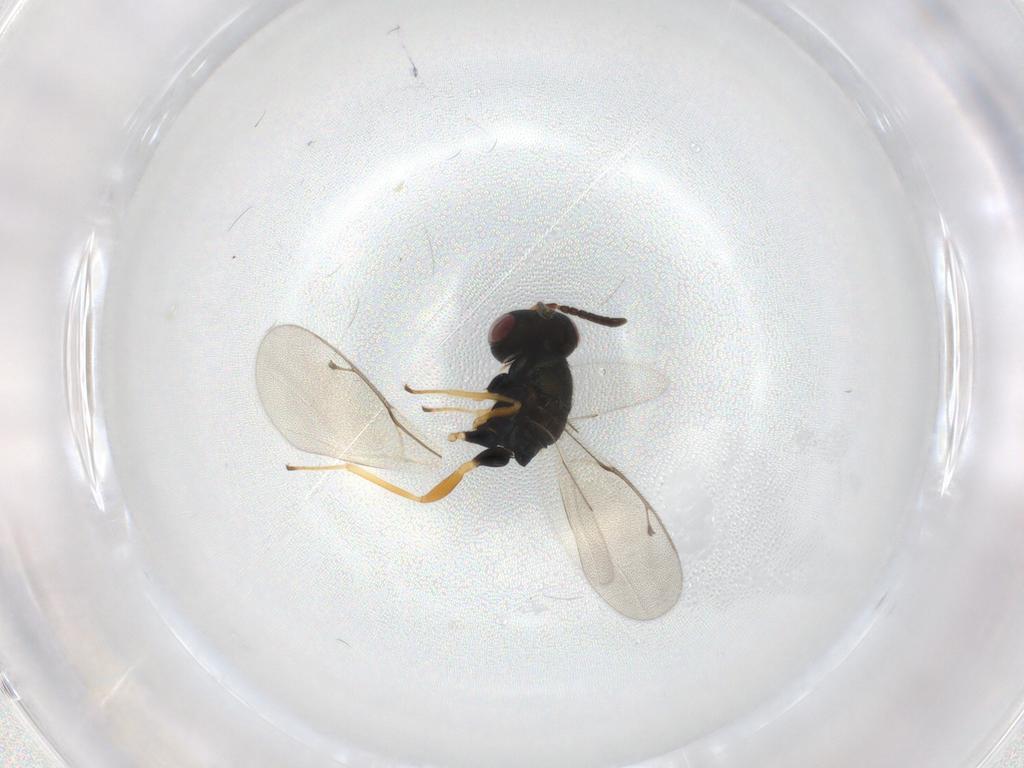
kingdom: Animalia
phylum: Arthropoda
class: Insecta
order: Hymenoptera
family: Pteromalidae
